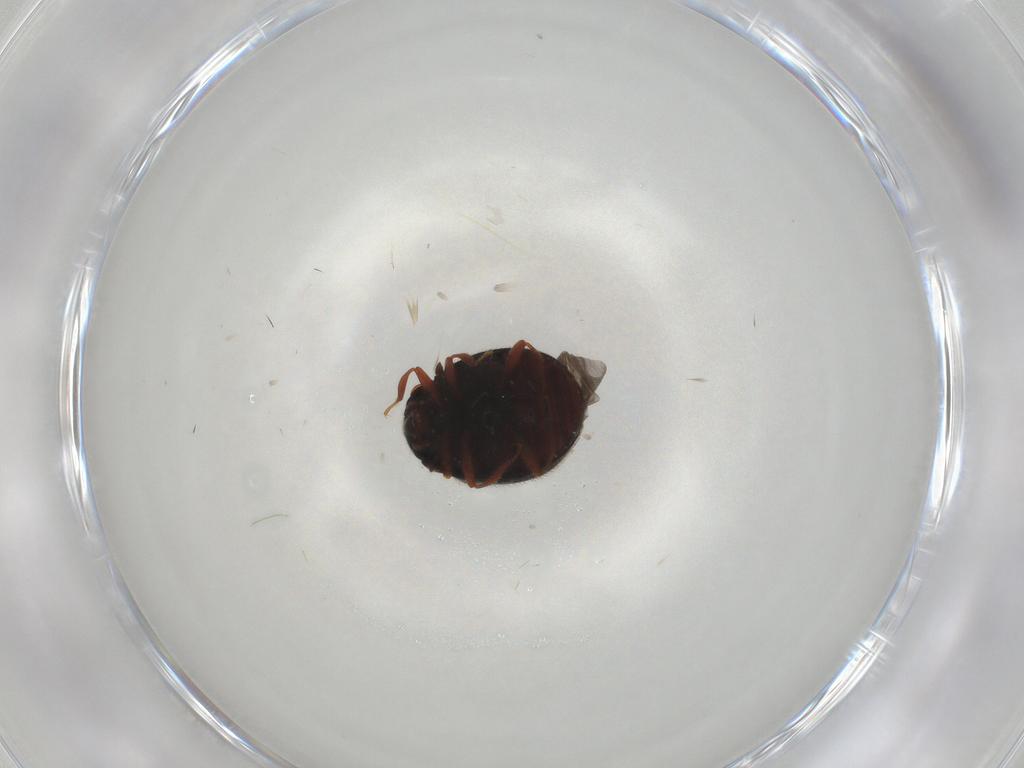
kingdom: Animalia
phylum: Arthropoda
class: Insecta
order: Coleoptera
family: Sphindidae
